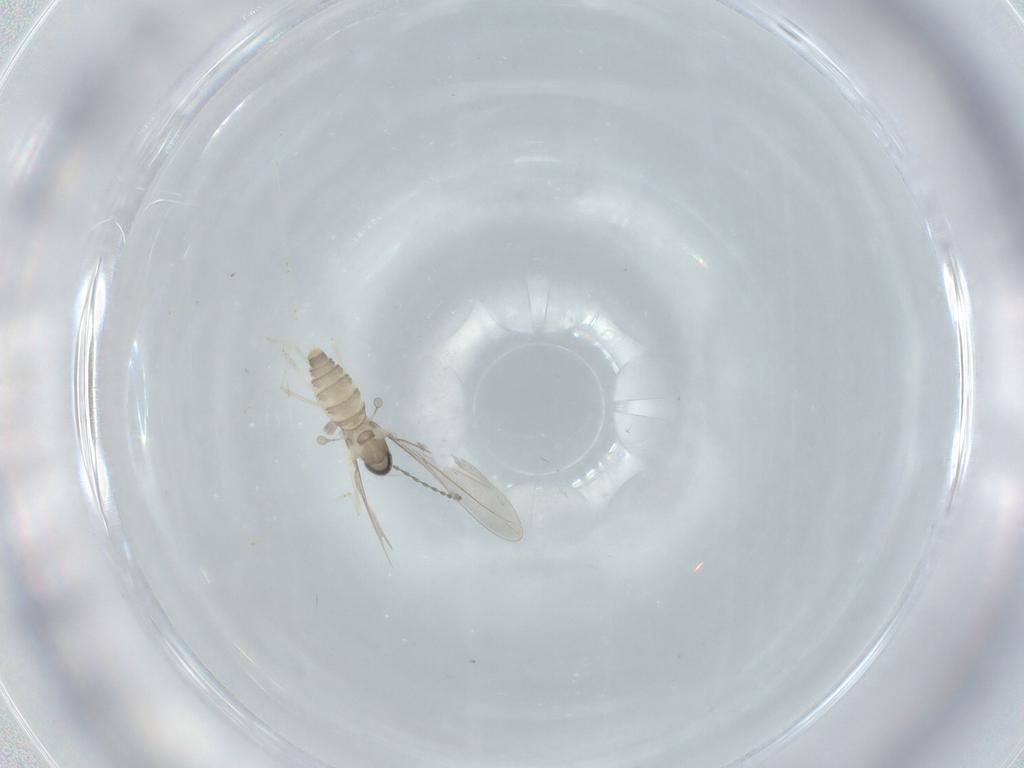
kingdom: Animalia
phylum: Arthropoda
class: Insecta
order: Diptera
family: Cecidomyiidae
